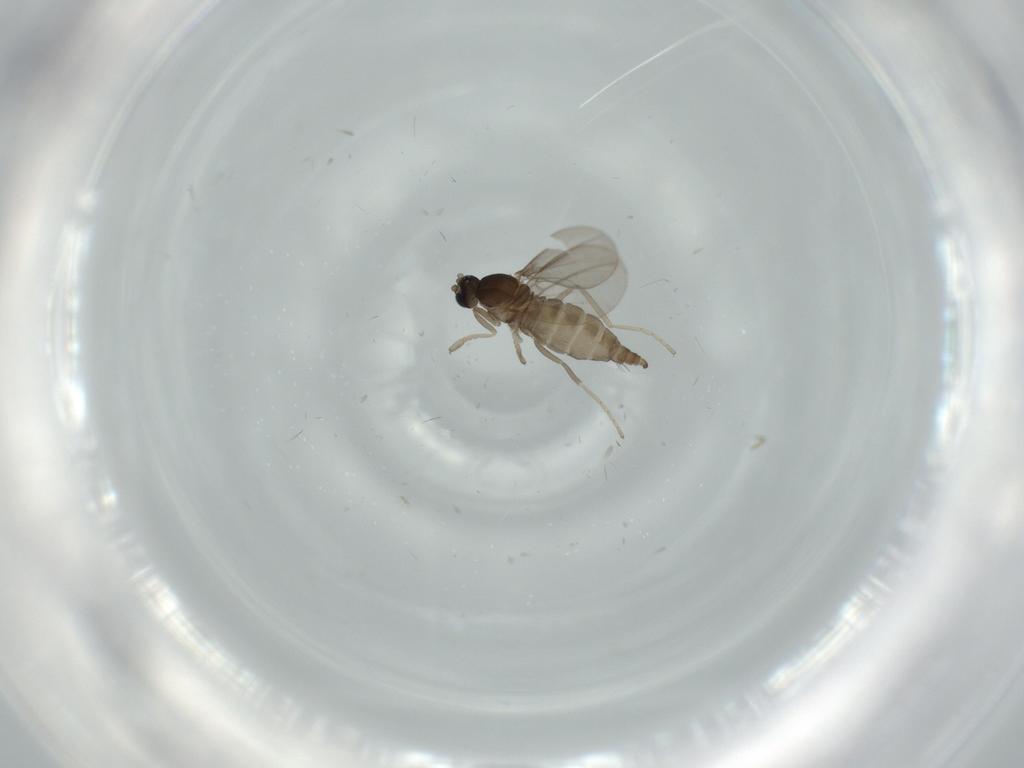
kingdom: Animalia
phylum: Arthropoda
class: Insecta
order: Diptera
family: Cecidomyiidae
